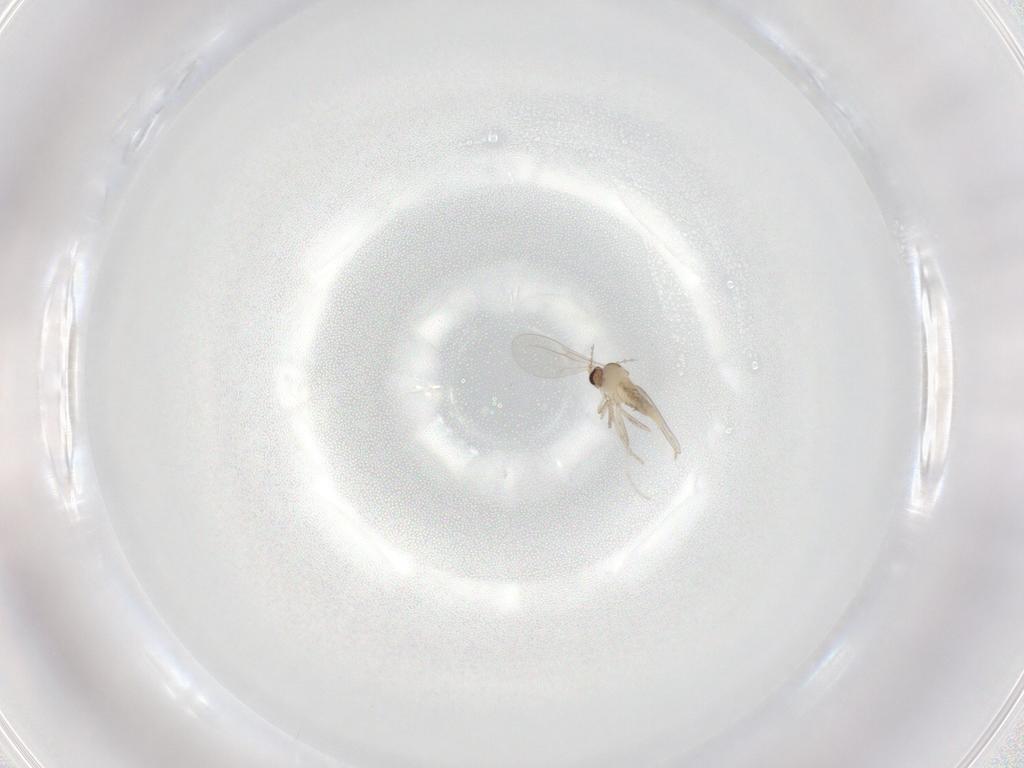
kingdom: Animalia
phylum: Arthropoda
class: Insecta
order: Diptera
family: Cecidomyiidae
